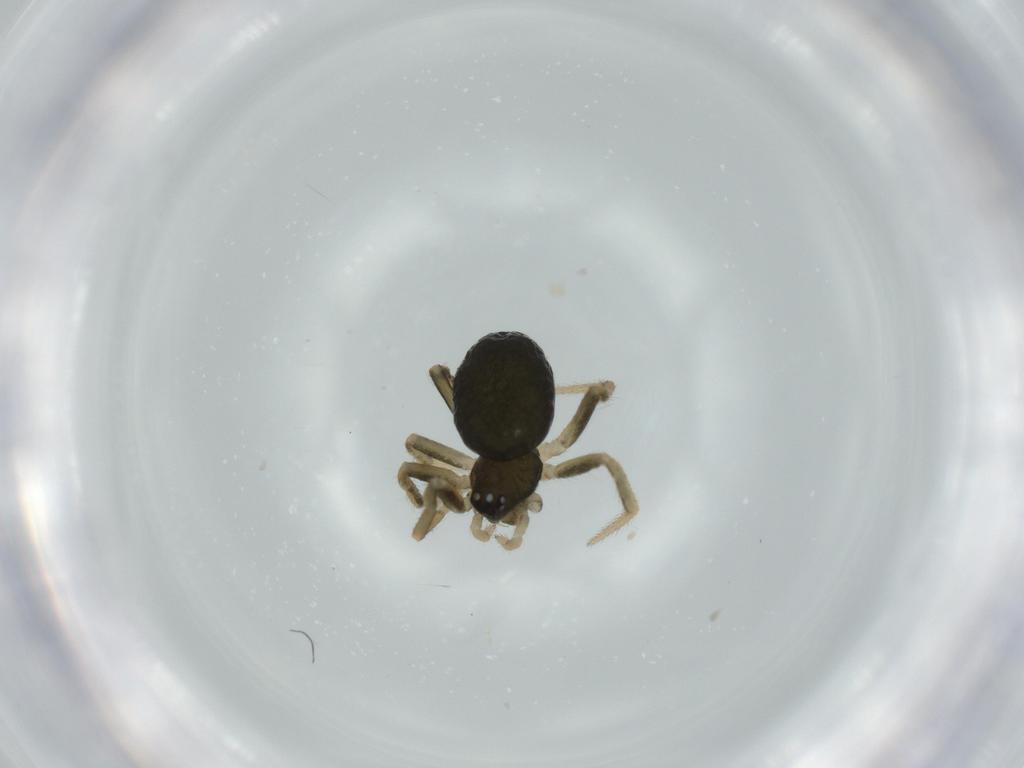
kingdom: Animalia
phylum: Arthropoda
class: Arachnida
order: Araneae
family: Theridiidae
